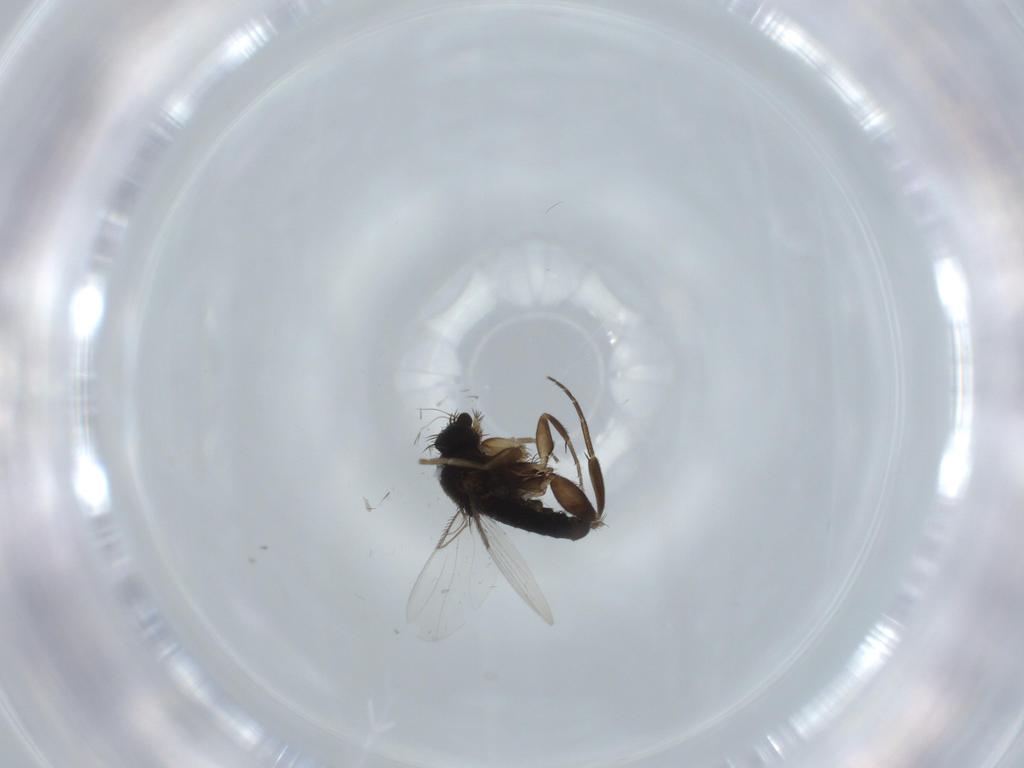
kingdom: Animalia
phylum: Arthropoda
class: Insecta
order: Diptera
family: Phoridae
